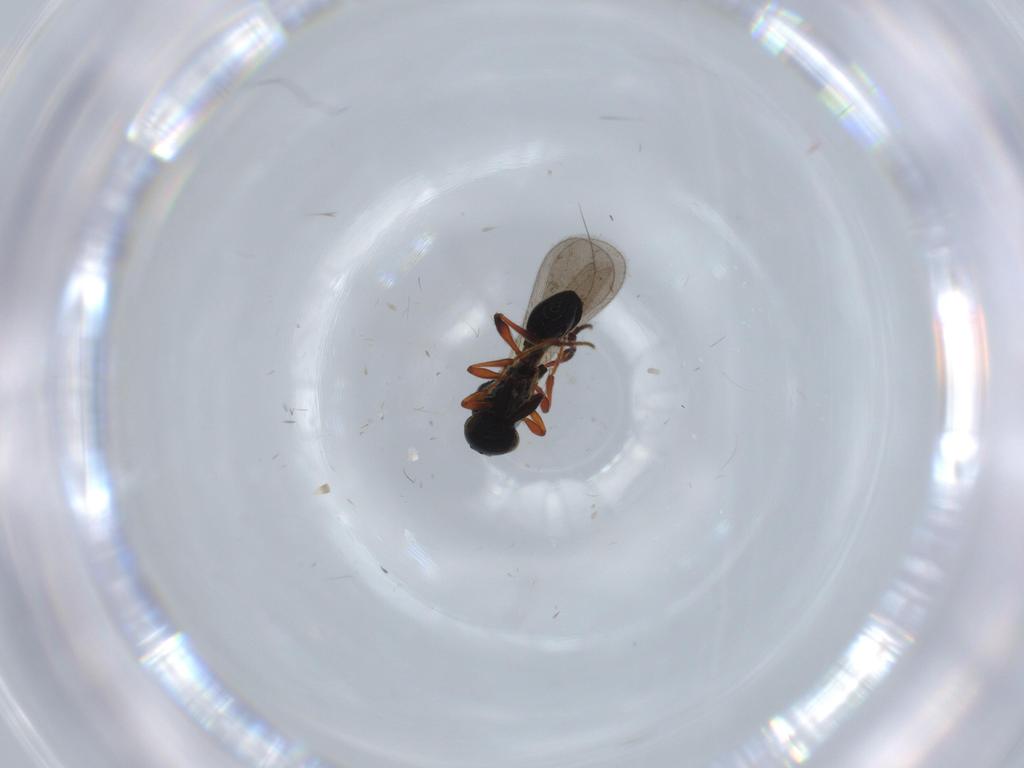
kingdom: Animalia
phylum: Arthropoda
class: Insecta
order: Hymenoptera
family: Platygastridae
